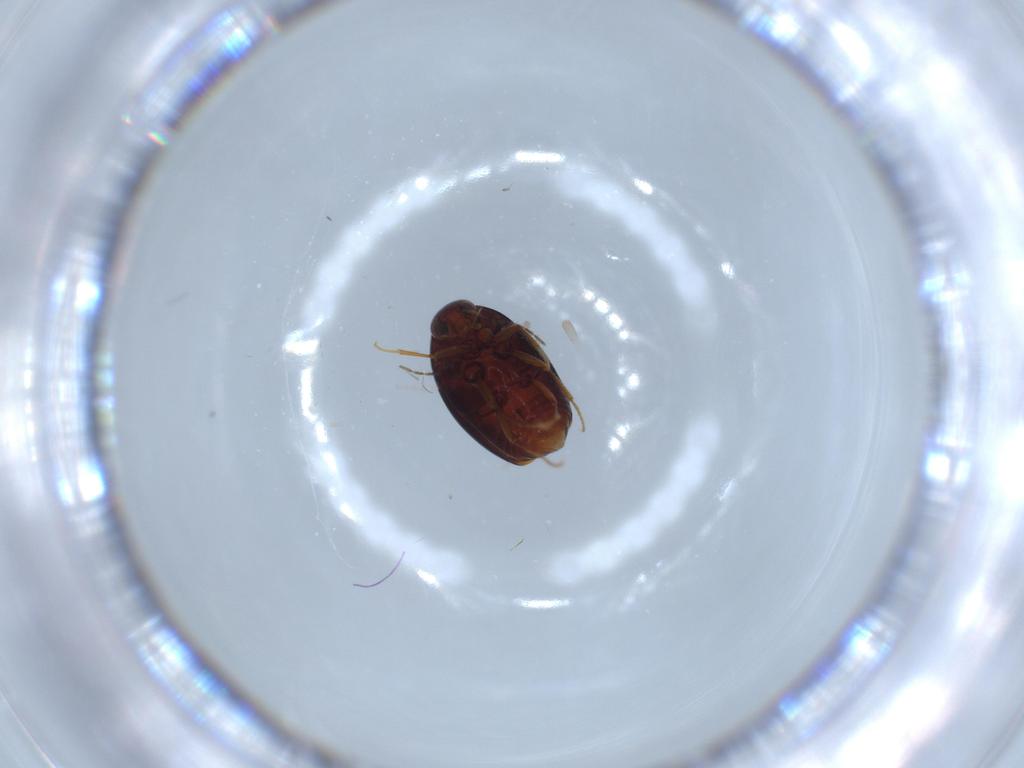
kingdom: Animalia
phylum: Arthropoda
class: Insecta
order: Coleoptera
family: Staphylinidae
